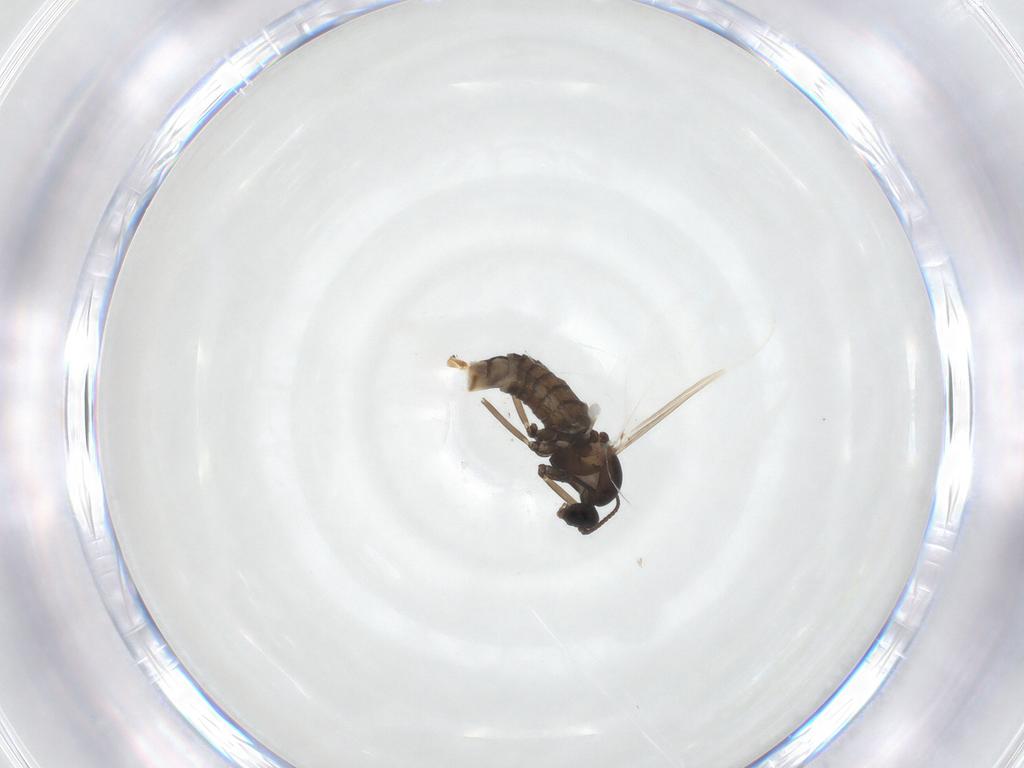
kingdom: Animalia
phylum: Arthropoda
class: Insecta
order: Diptera
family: Cecidomyiidae
